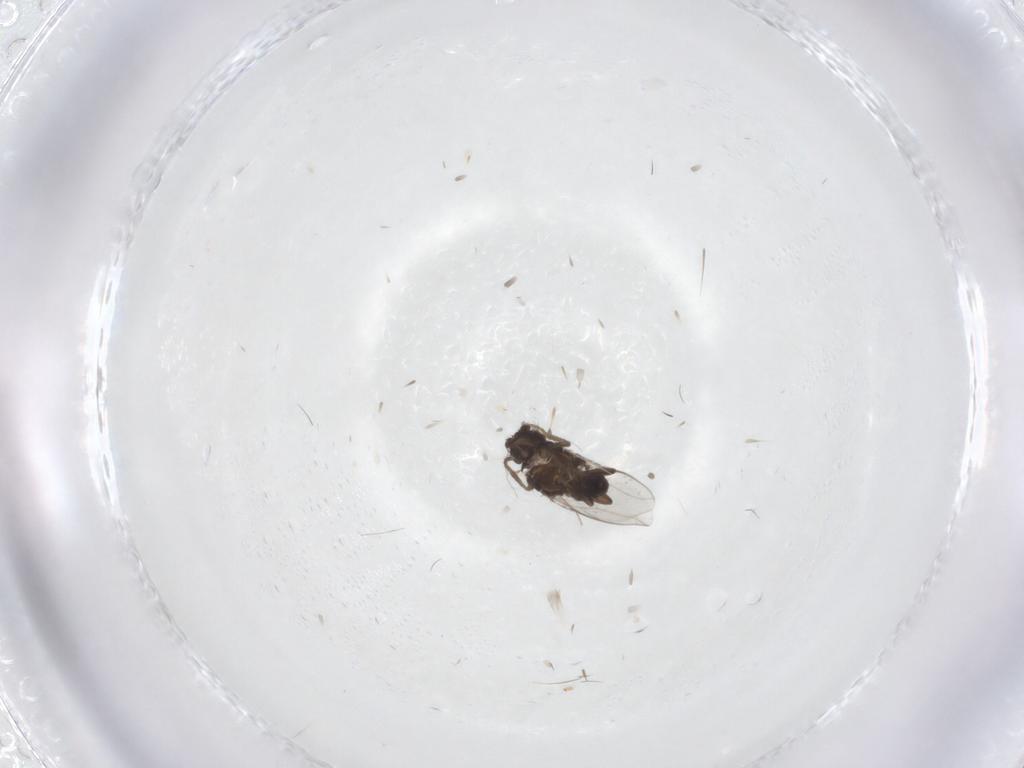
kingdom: Animalia
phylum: Arthropoda
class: Insecta
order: Diptera
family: Sphaeroceridae
